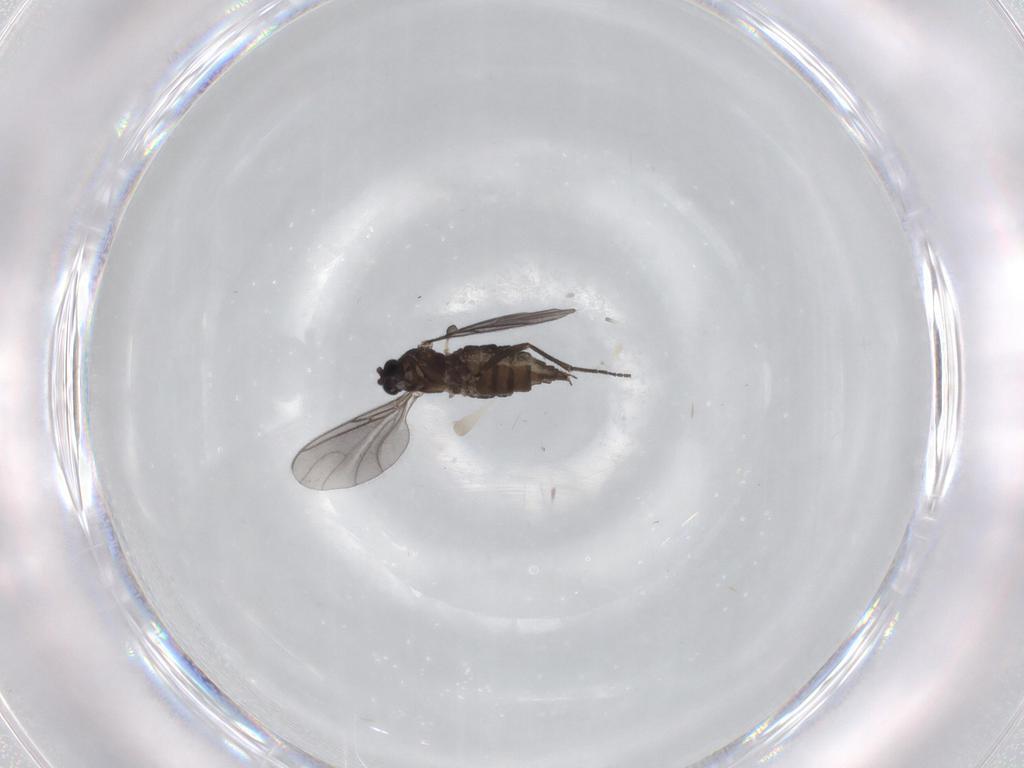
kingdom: Animalia
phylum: Arthropoda
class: Insecta
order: Diptera
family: Sciaridae
